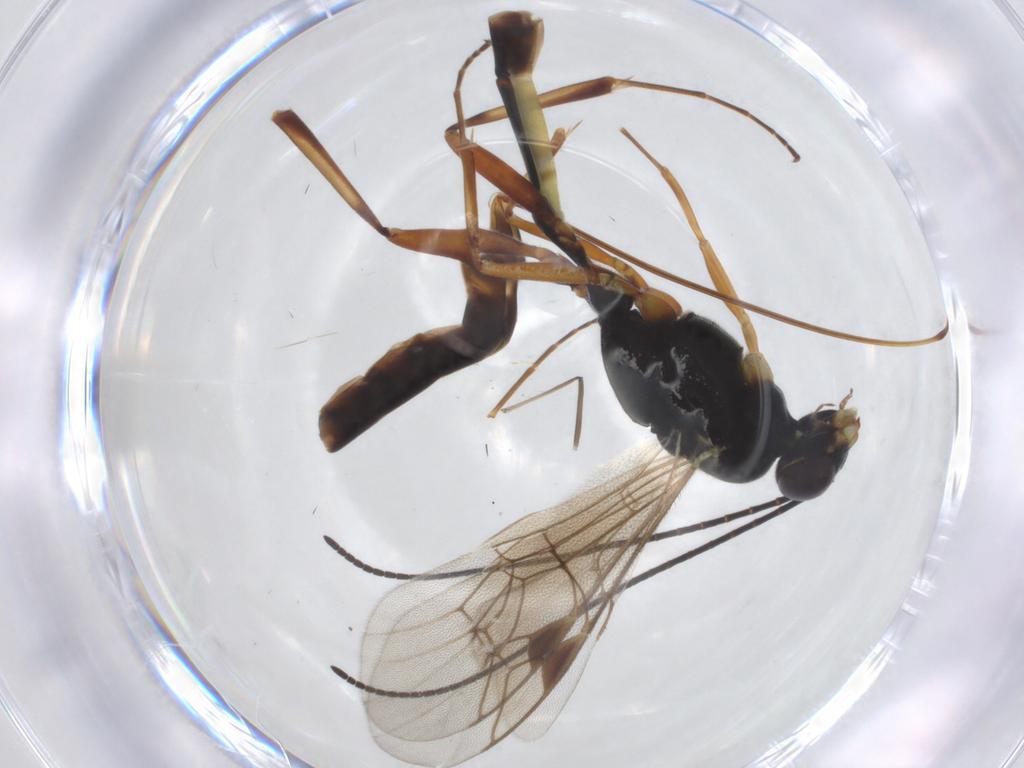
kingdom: Animalia
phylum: Arthropoda
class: Insecta
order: Hymenoptera
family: Ichneumonidae
